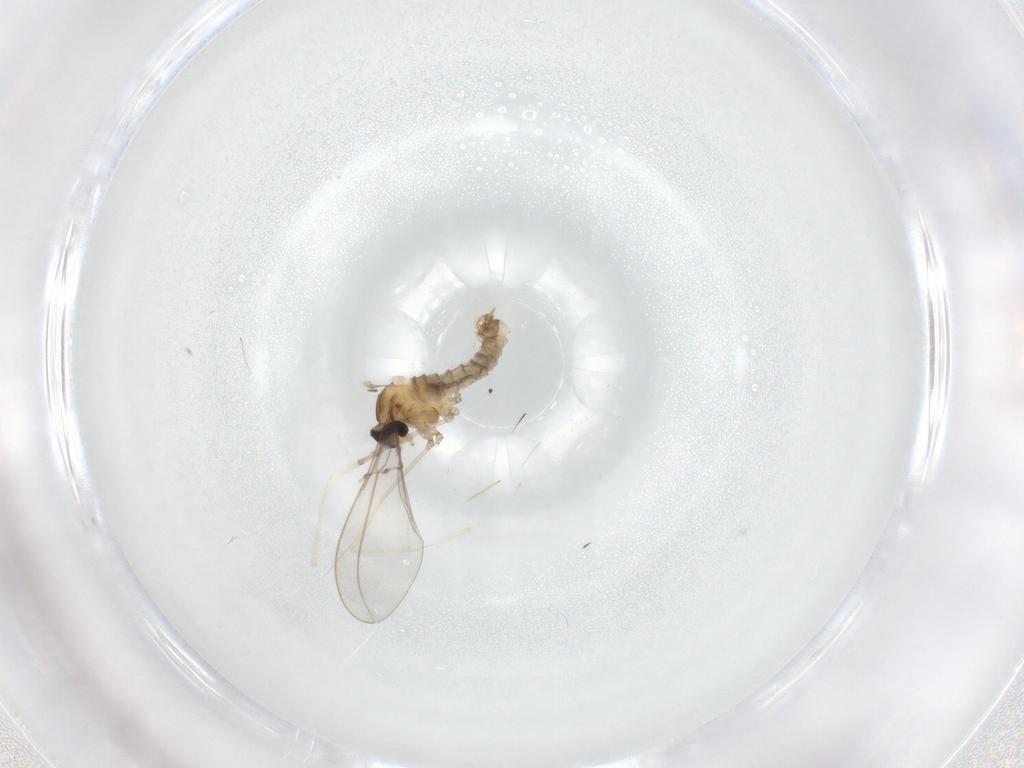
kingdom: Animalia
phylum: Arthropoda
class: Insecta
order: Diptera
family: Cecidomyiidae
